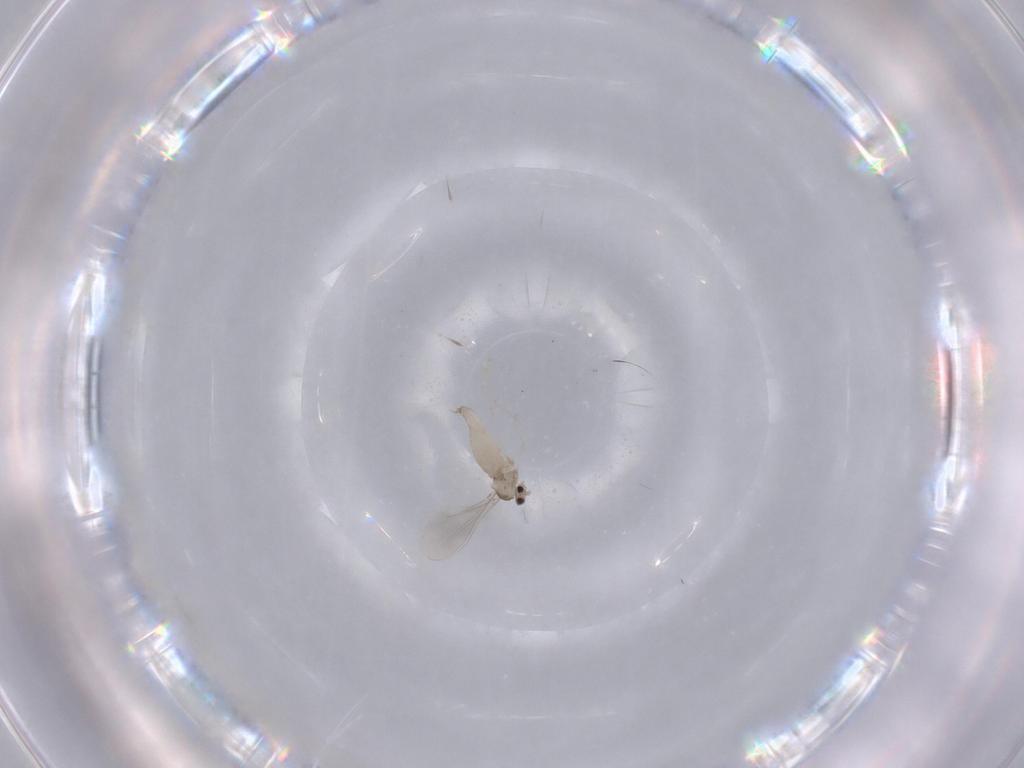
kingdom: Animalia
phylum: Arthropoda
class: Insecta
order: Diptera
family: Cecidomyiidae
